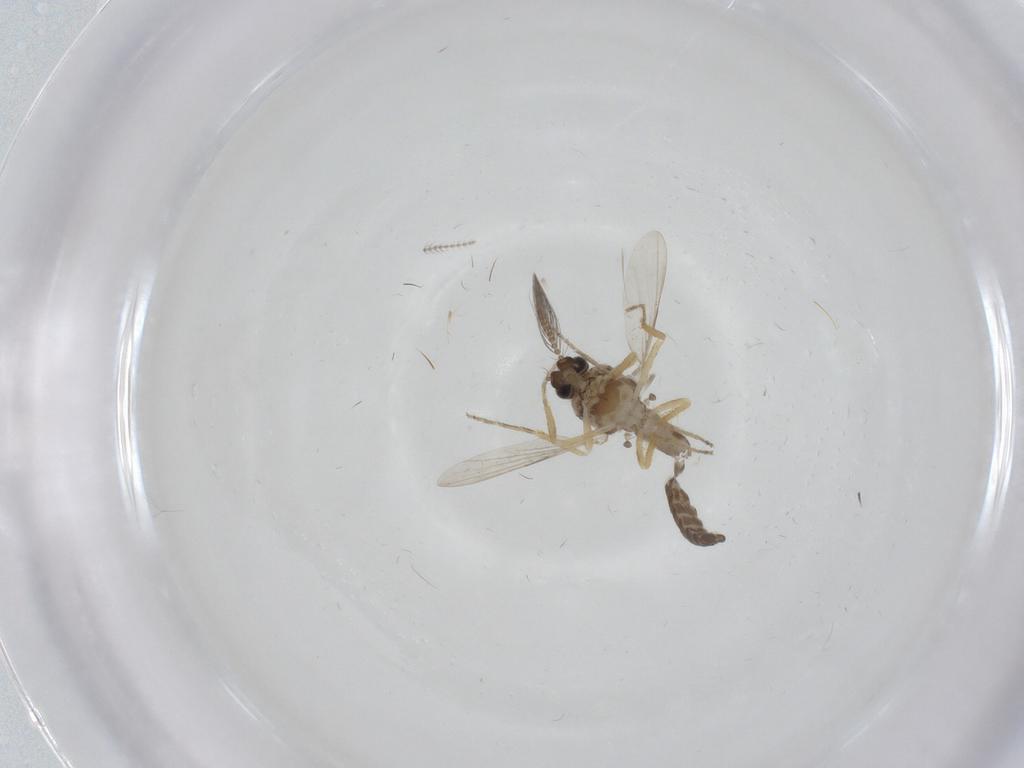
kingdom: Animalia
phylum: Arthropoda
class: Insecta
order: Diptera
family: Ceratopogonidae
